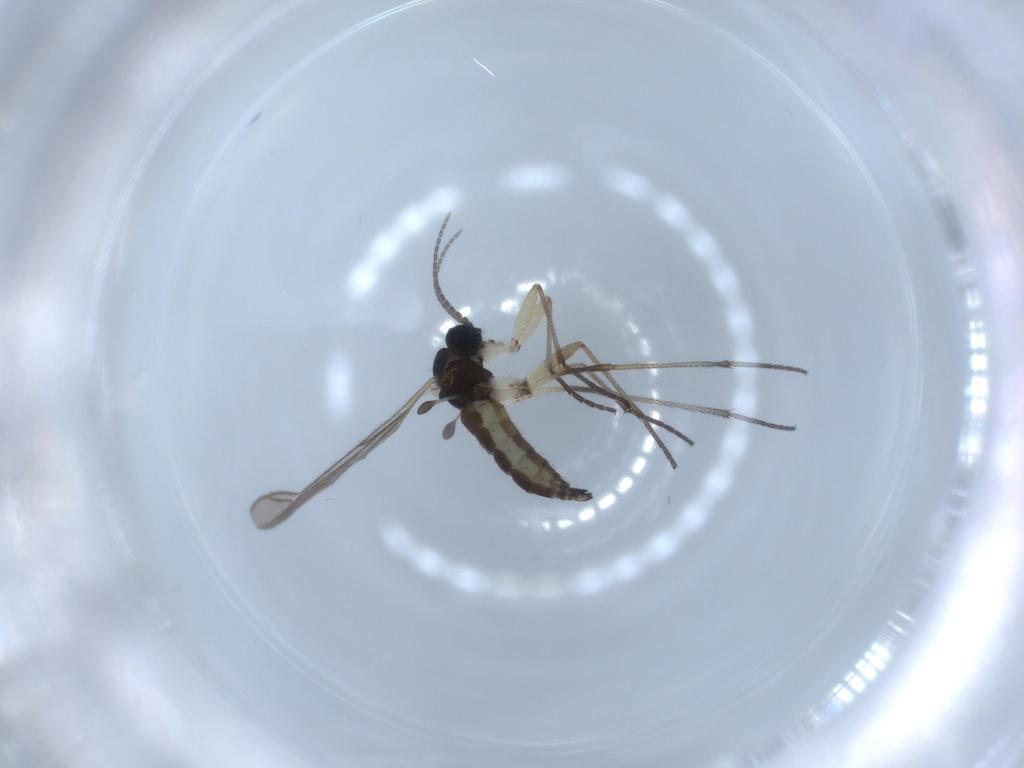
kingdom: Animalia
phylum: Arthropoda
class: Insecta
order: Diptera
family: Sciaridae
